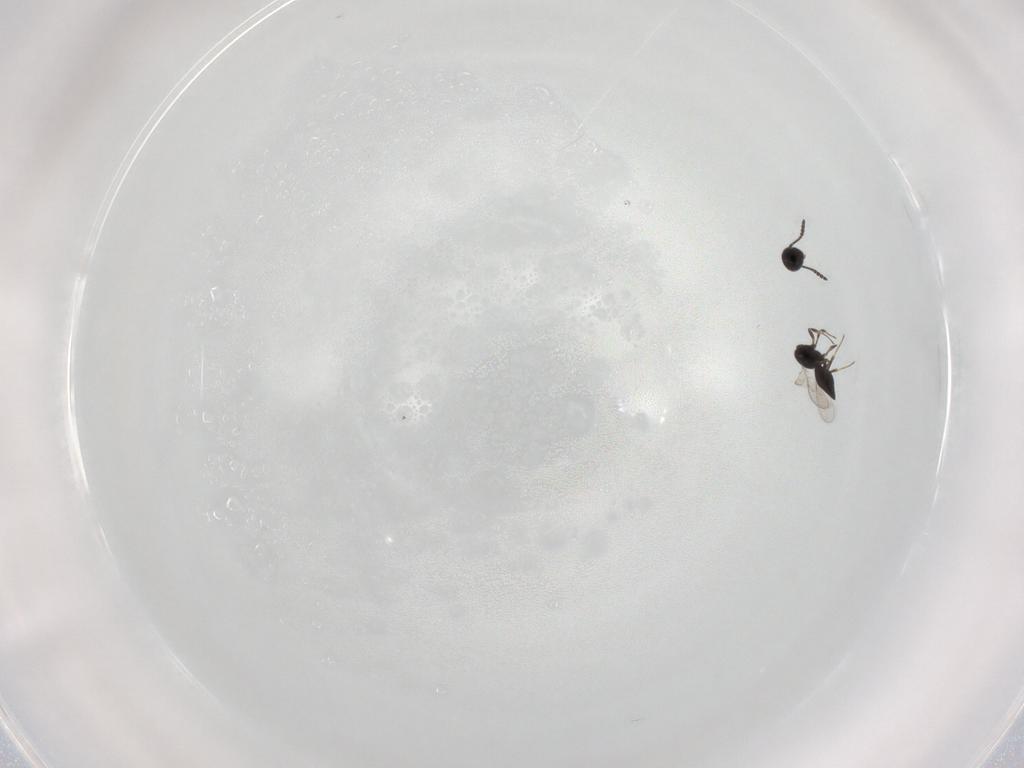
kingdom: Animalia
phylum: Arthropoda
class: Insecta
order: Hymenoptera
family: Scelionidae
